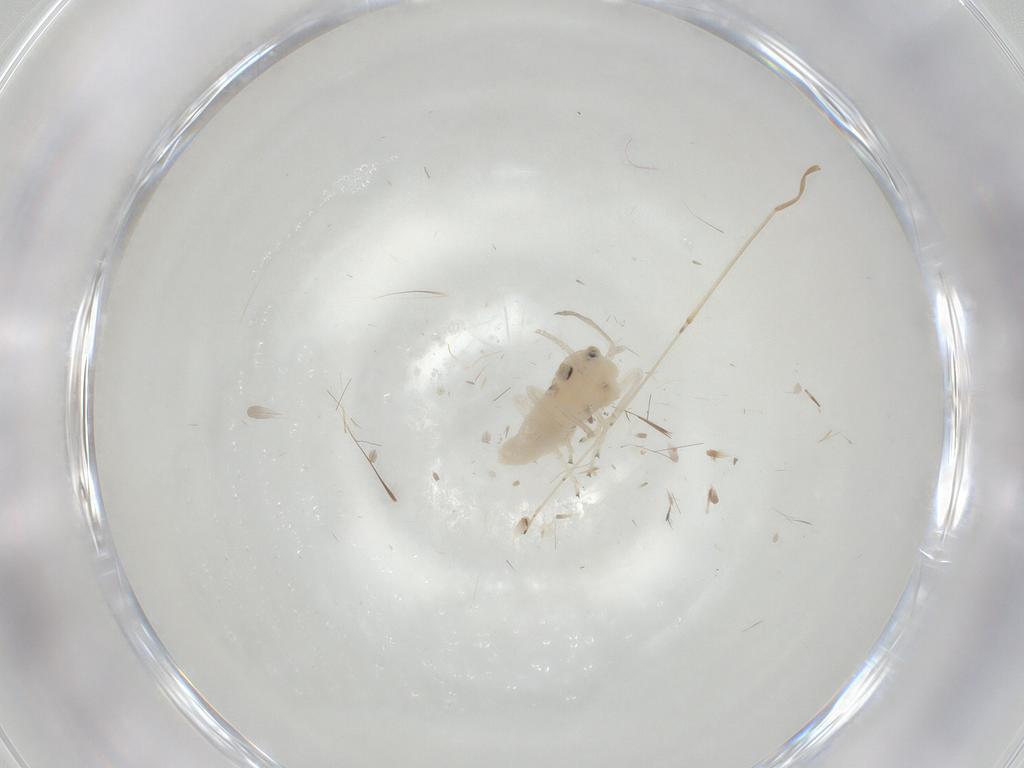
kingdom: Animalia
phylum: Arthropoda
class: Insecta
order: Psocodea
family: Caeciliusidae
